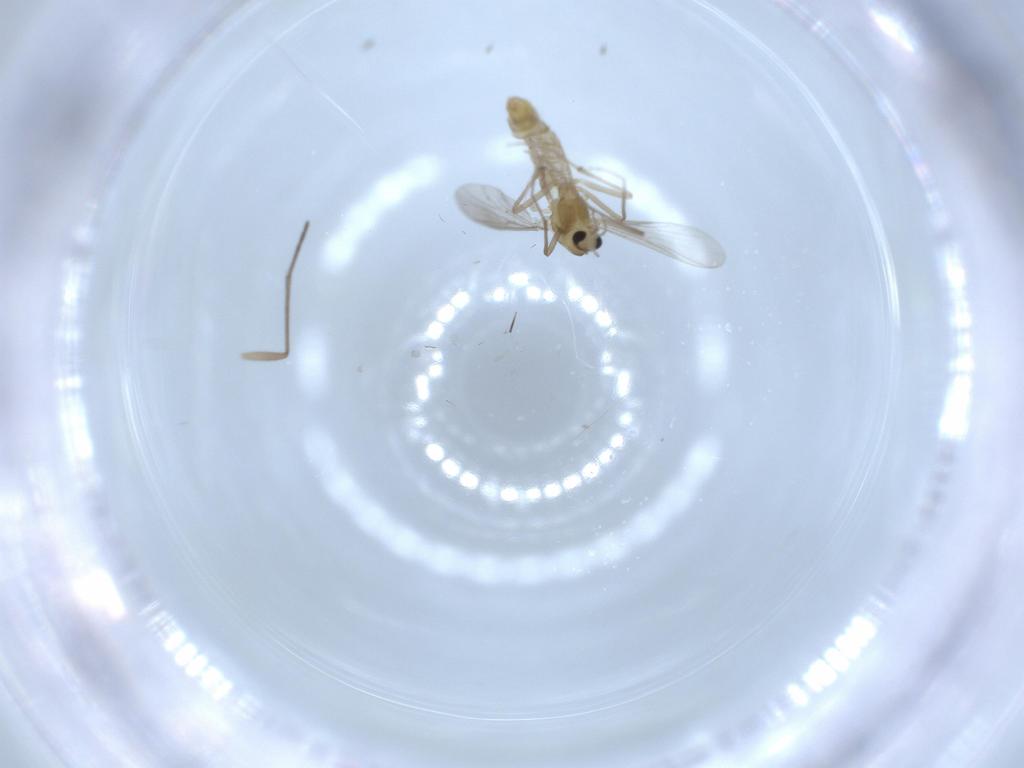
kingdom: Animalia
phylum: Arthropoda
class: Insecta
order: Diptera
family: Chironomidae
